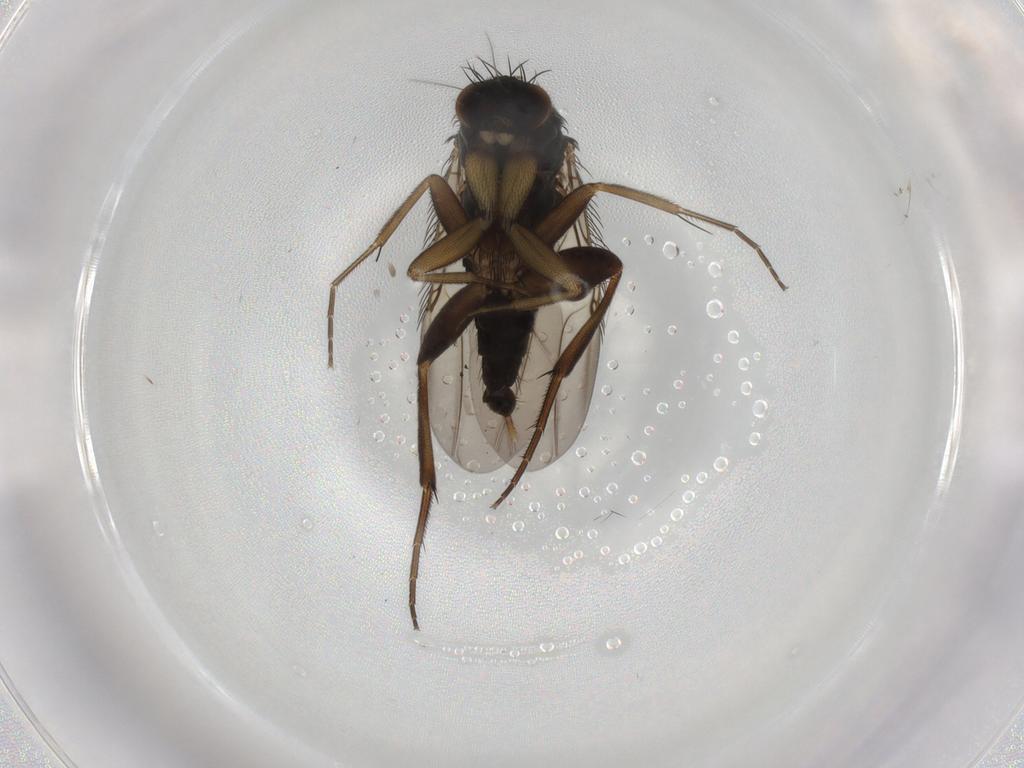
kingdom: Animalia
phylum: Arthropoda
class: Insecta
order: Diptera
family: Phoridae
